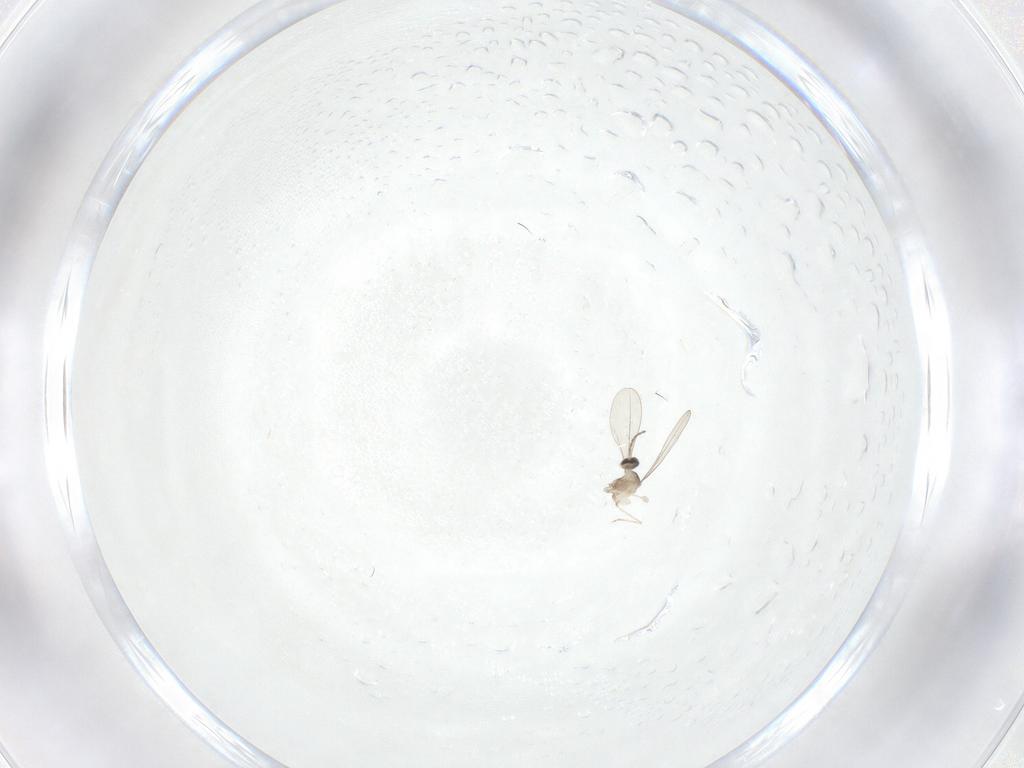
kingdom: Animalia
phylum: Arthropoda
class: Insecta
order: Diptera
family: Cecidomyiidae
